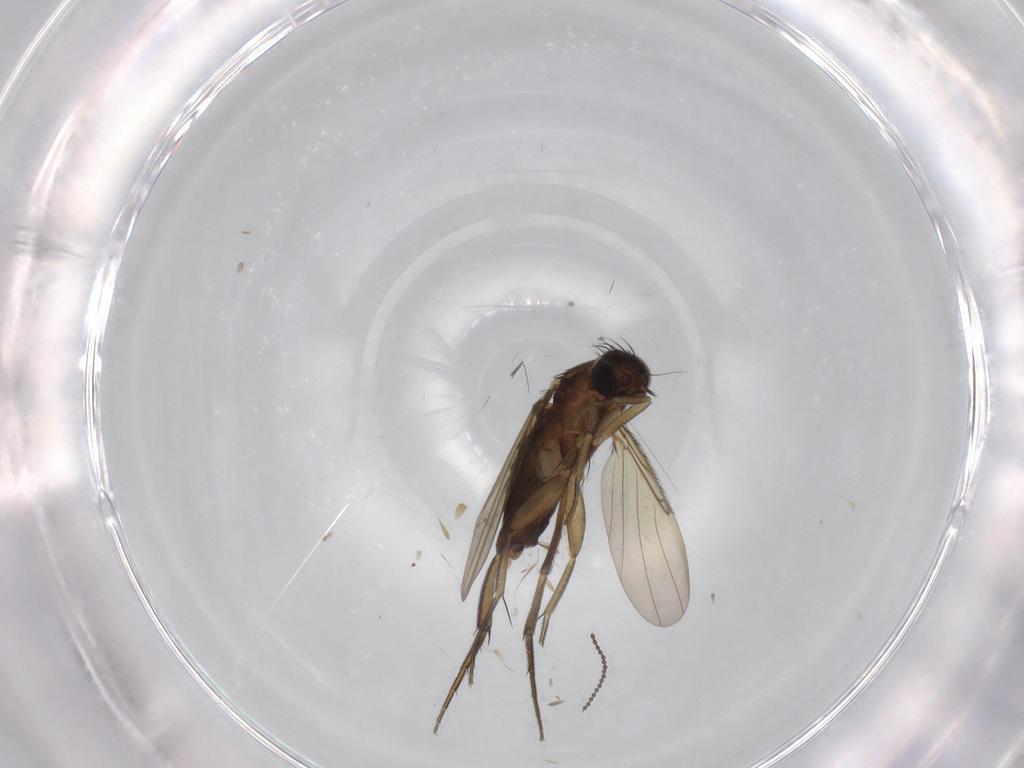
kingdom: Animalia
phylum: Arthropoda
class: Insecta
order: Diptera
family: Phoridae
